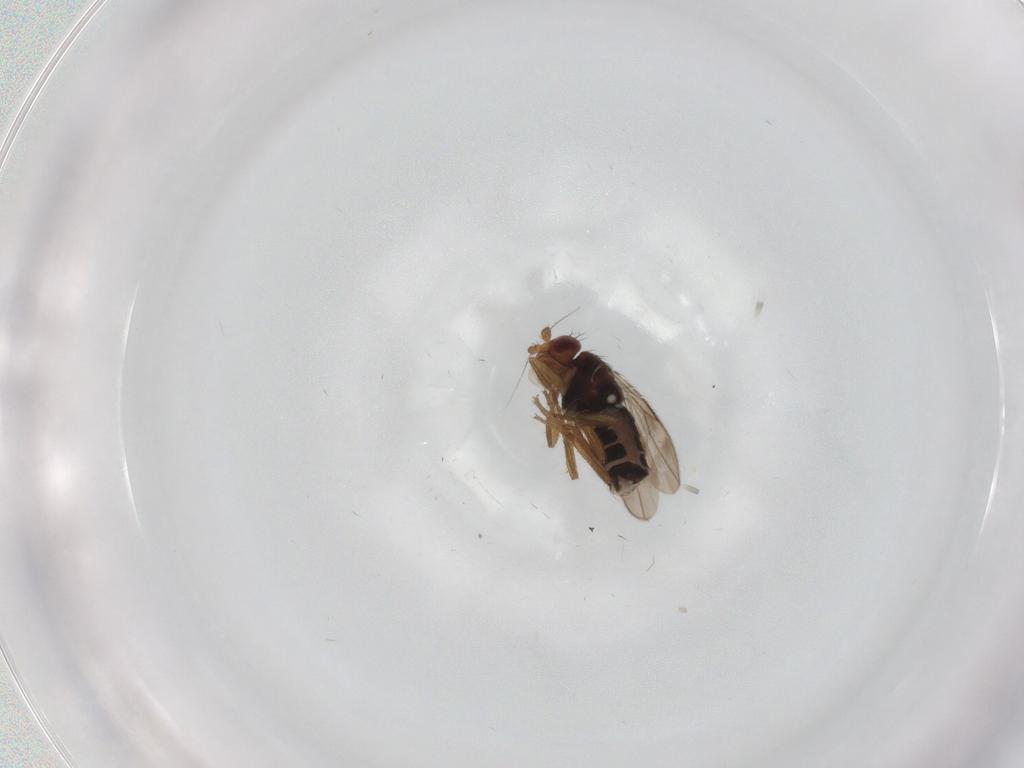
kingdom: Animalia
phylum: Arthropoda
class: Insecta
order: Diptera
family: Sphaeroceridae
